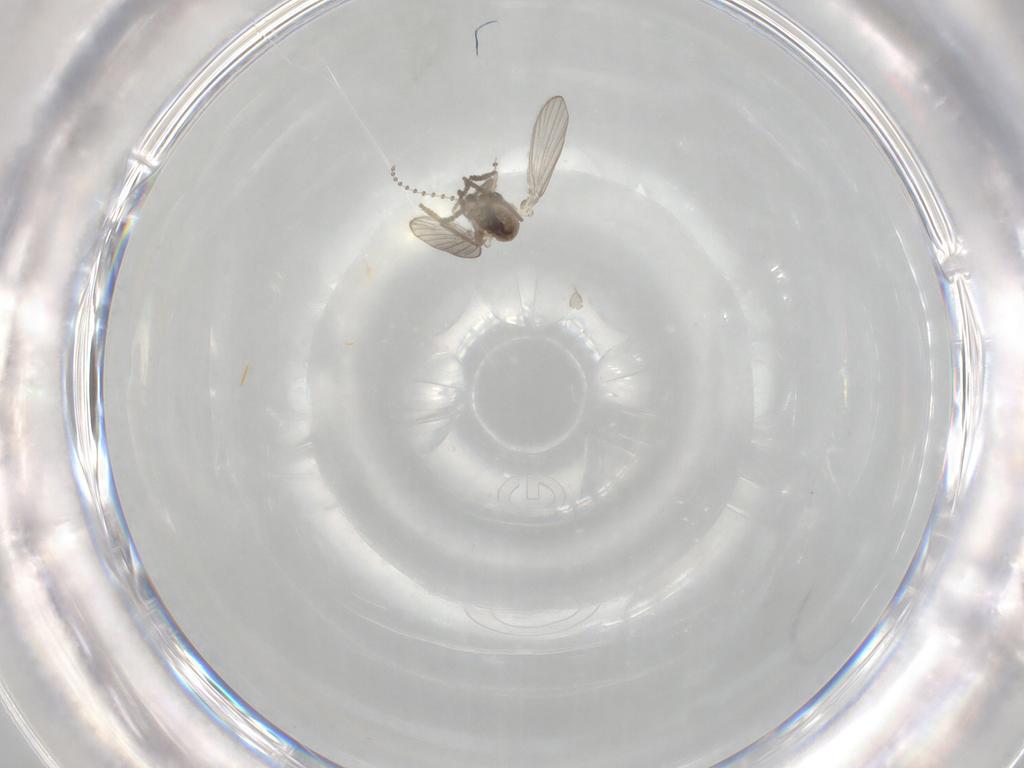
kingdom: Animalia
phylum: Arthropoda
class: Insecta
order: Diptera
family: Psychodidae
